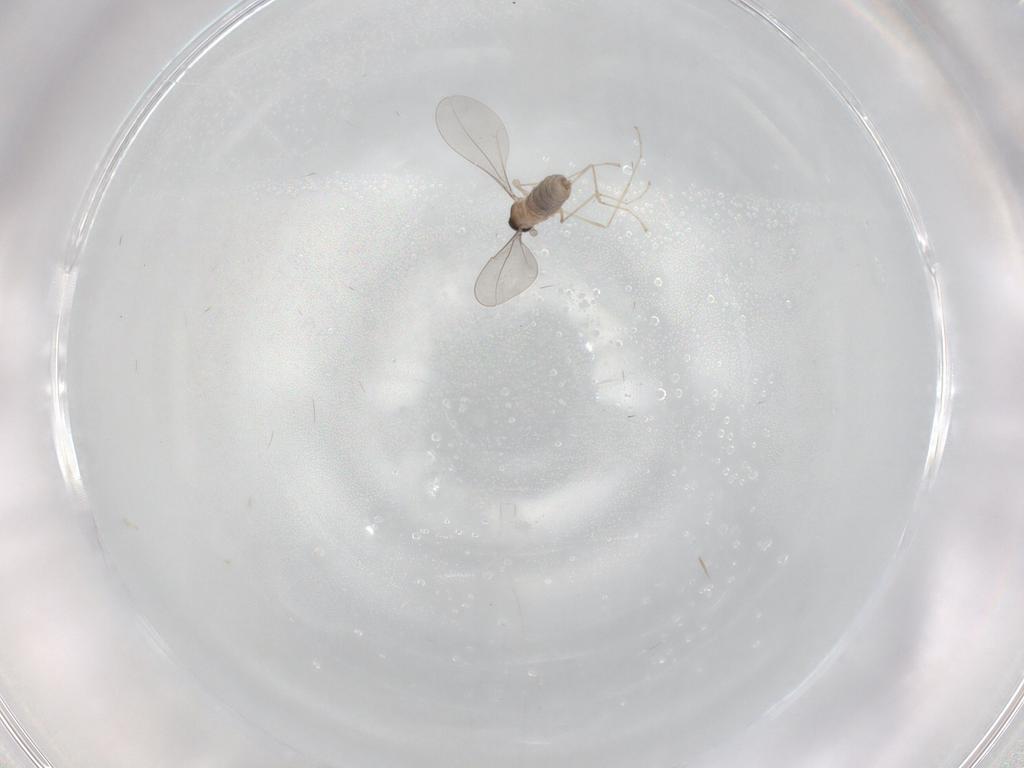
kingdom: Animalia
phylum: Arthropoda
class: Insecta
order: Diptera
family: Cecidomyiidae
